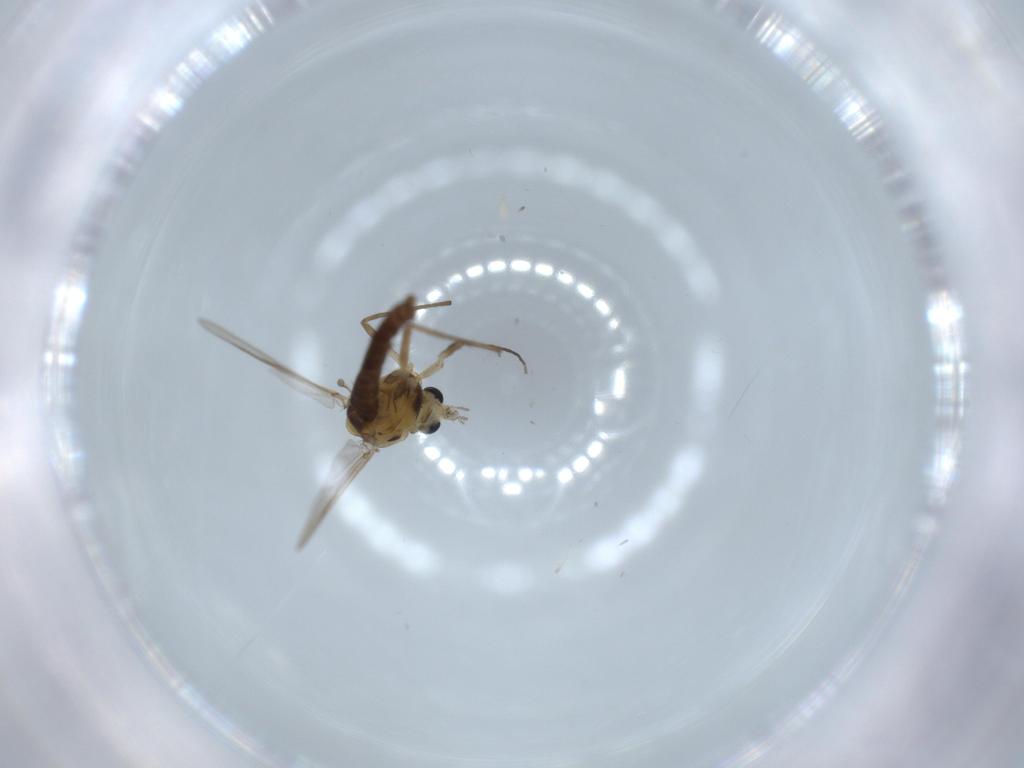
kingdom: Animalia
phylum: Arthropoda
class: Insecta
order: Diptera
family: Chironomidae
